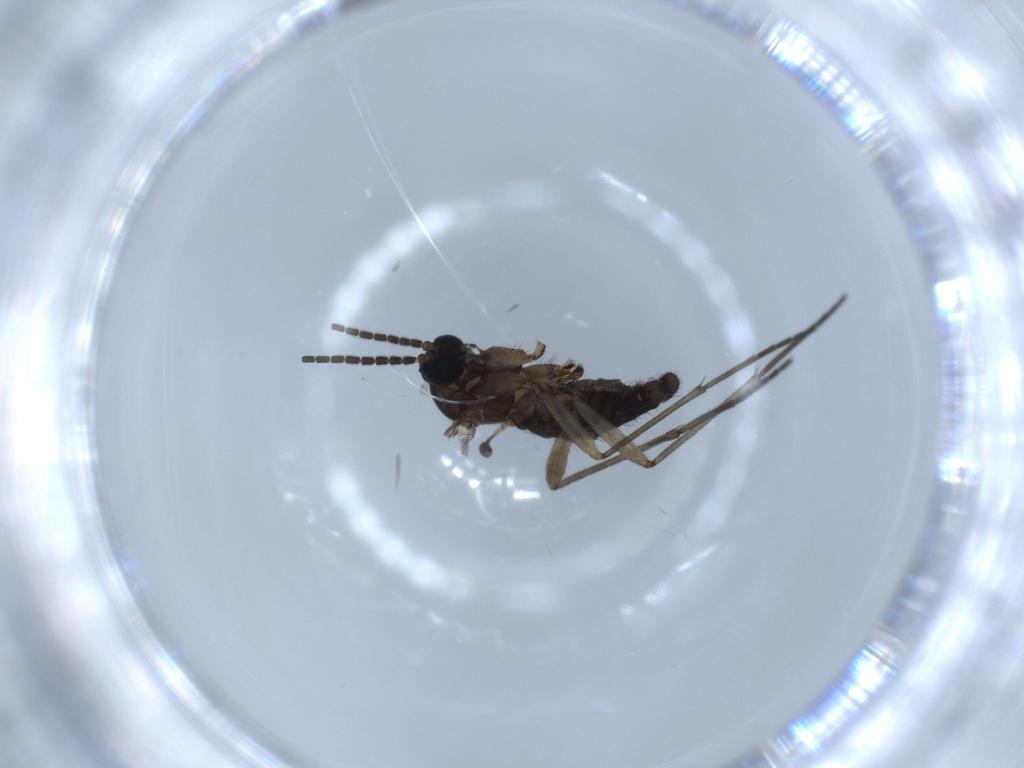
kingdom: Animalia
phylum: Arthropoda
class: Insecta
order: Diptera
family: Sciaridae
